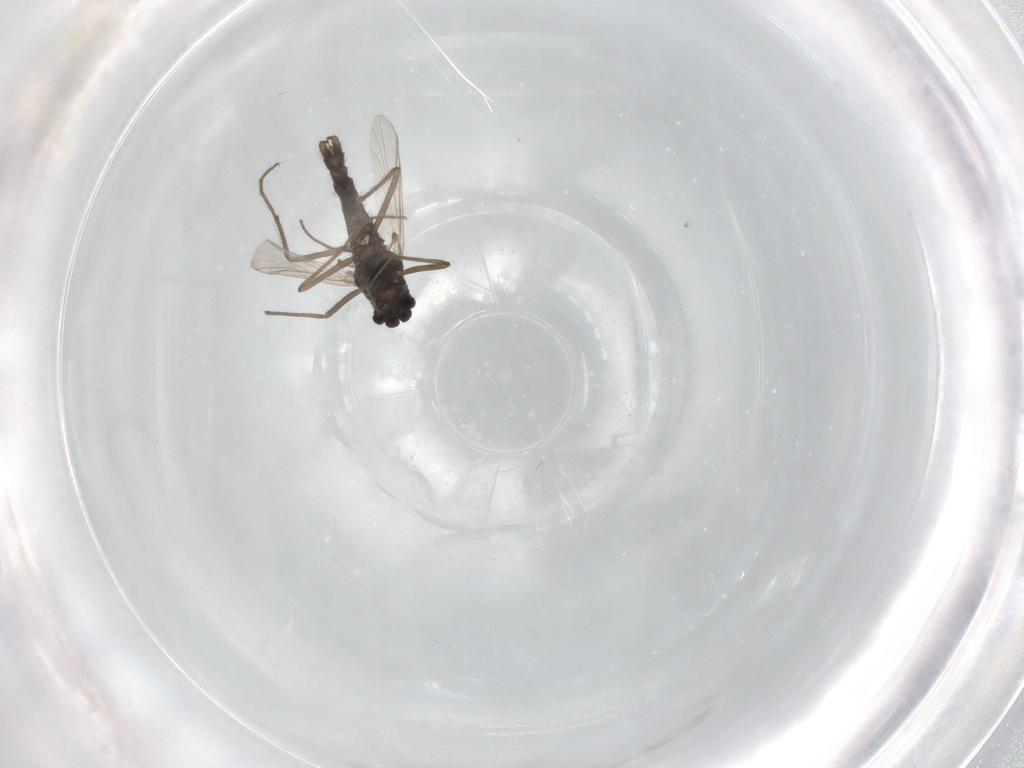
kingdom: Animalia
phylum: Arthropoda
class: Insecta
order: Diptera
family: Chironomidae
